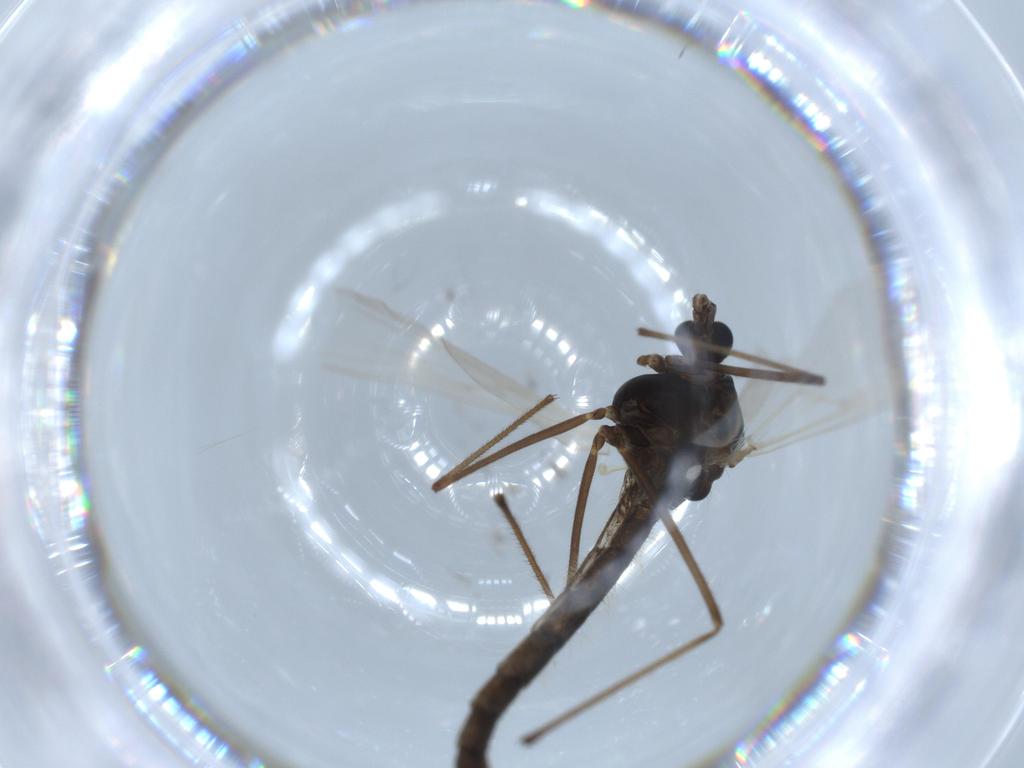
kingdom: Animalia
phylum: Arthropoda
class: Insecta
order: Diptera
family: Chironomidae
